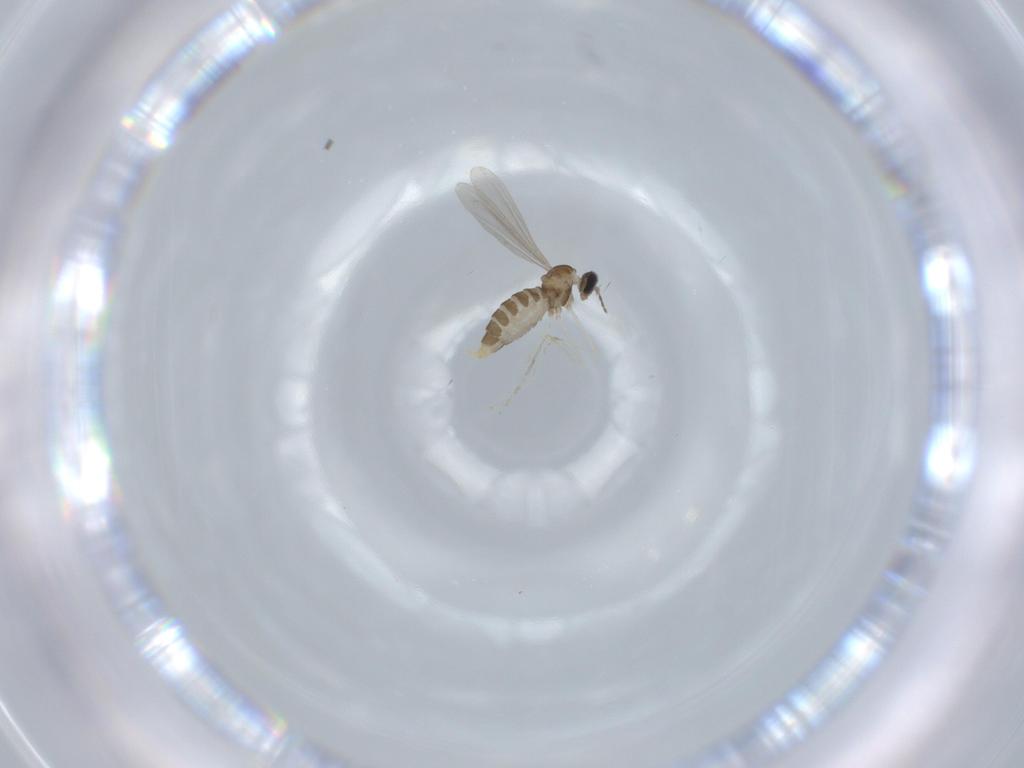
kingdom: Animalia
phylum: Arthropoda
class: Insecta
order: Diptera
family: Cecidomyiidae
